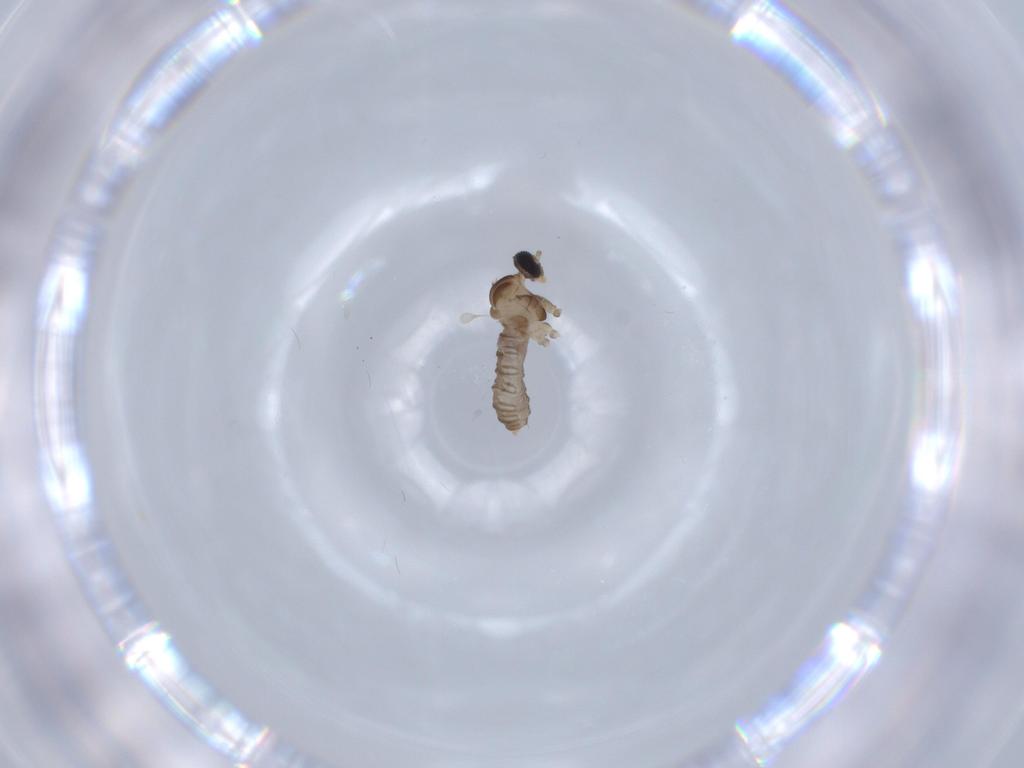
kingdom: Animalia
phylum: Arthropoda
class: Insecta
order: Diptera
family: Cecidomyiidae
